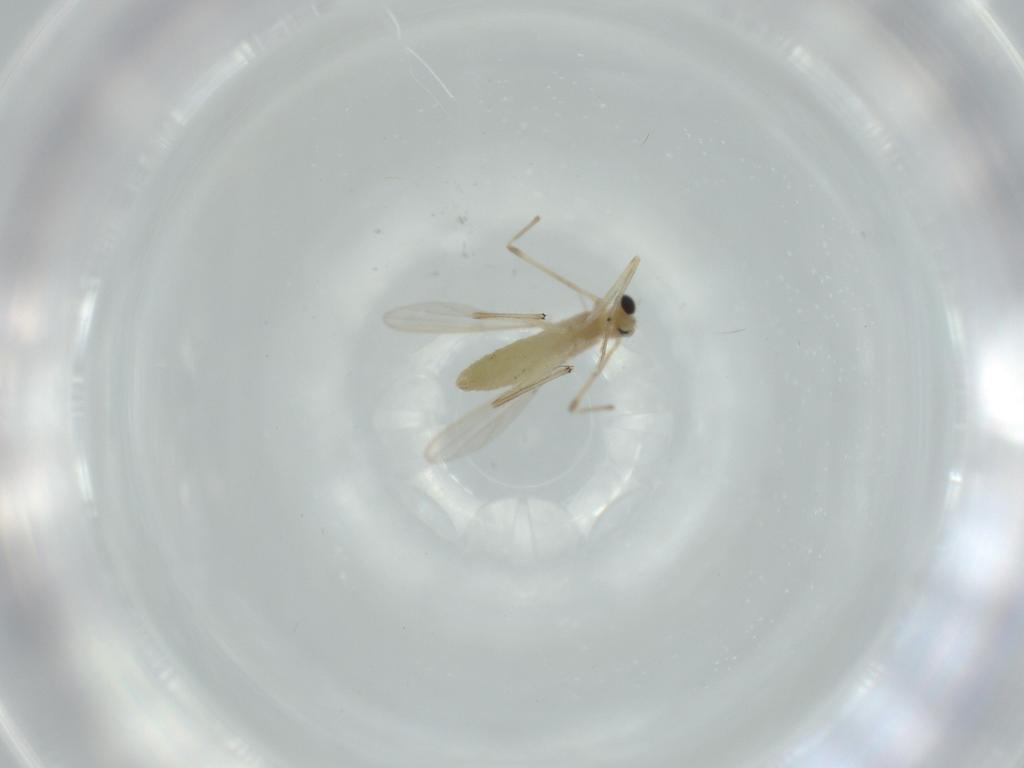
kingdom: Animalia
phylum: Arthropoda
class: Insecta
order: Diptera
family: Chironomidae
